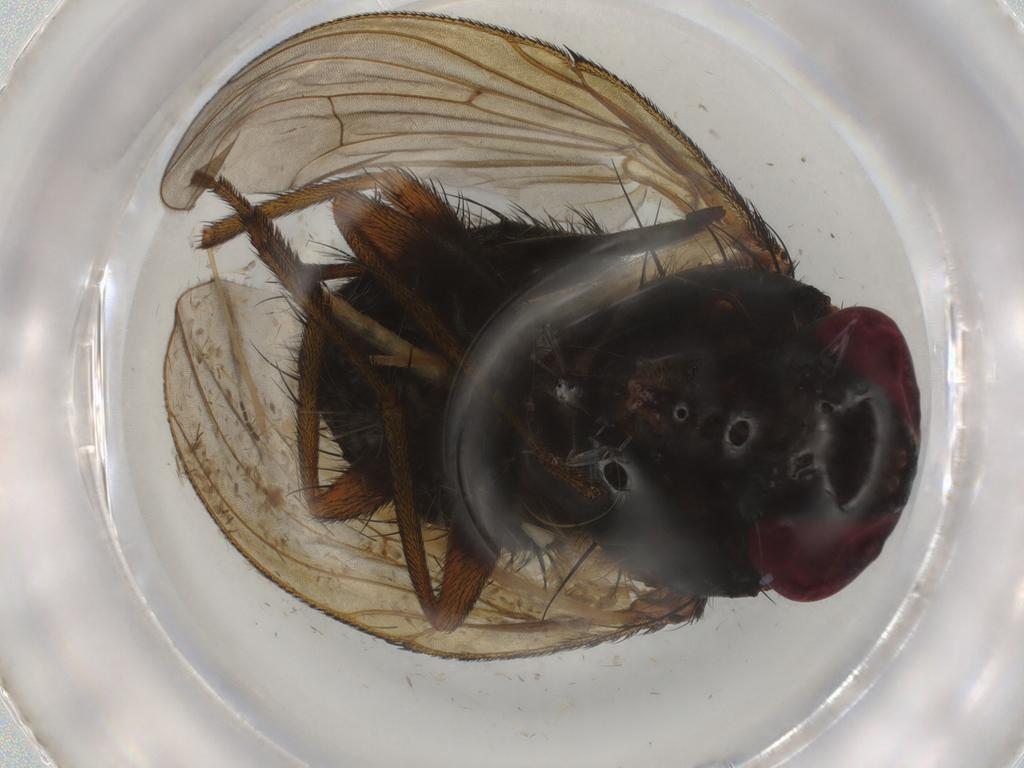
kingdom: Animalia
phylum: Arthropoda
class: Insecta
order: Diptera
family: Muscidae
